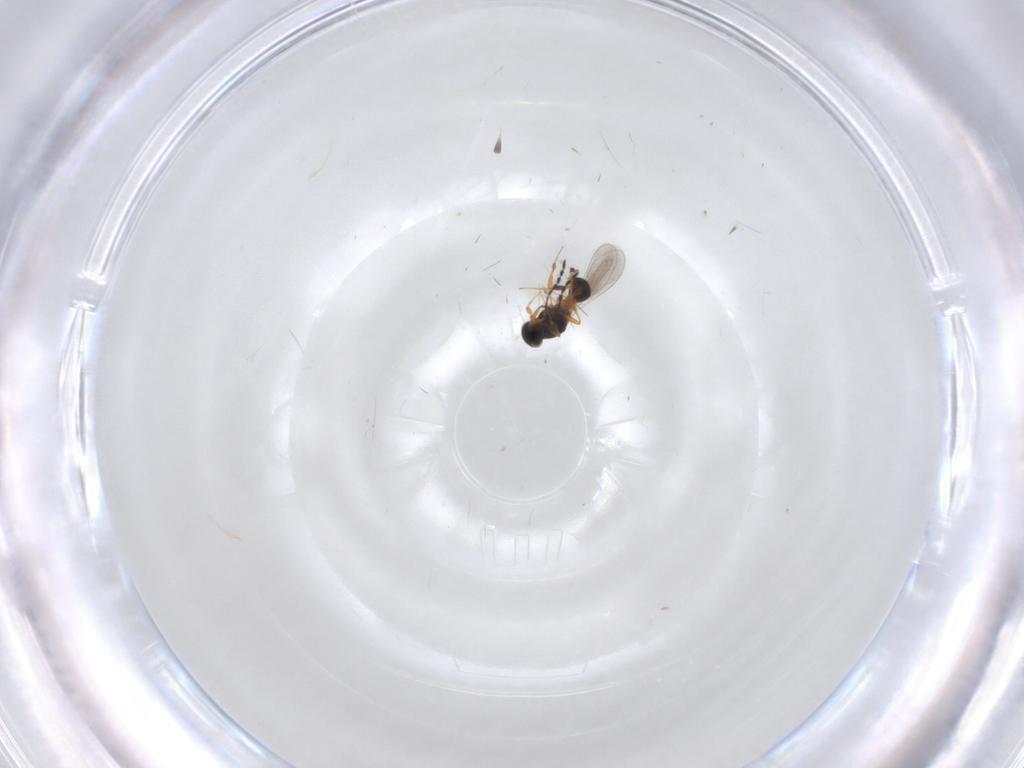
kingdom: Animalia
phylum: Arthropoda
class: Insecta
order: Hymenoptera
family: Platygastridae
